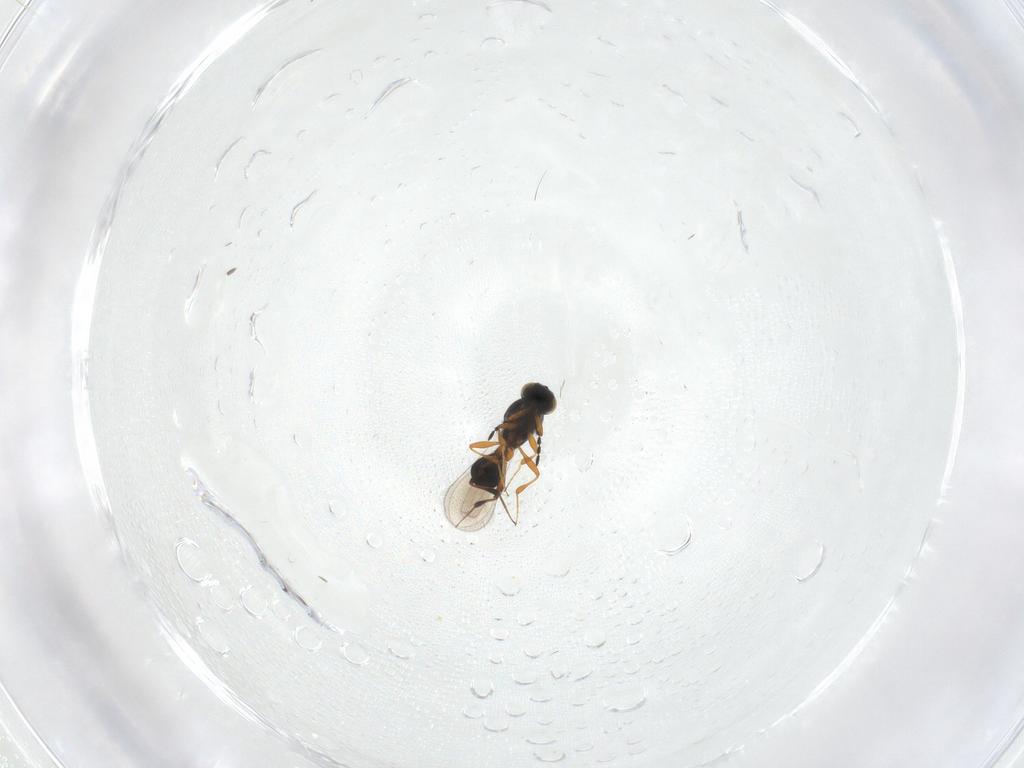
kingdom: Animalia
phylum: Arthropoda
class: Insecta
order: Hymenoptera
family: Platygastridae
